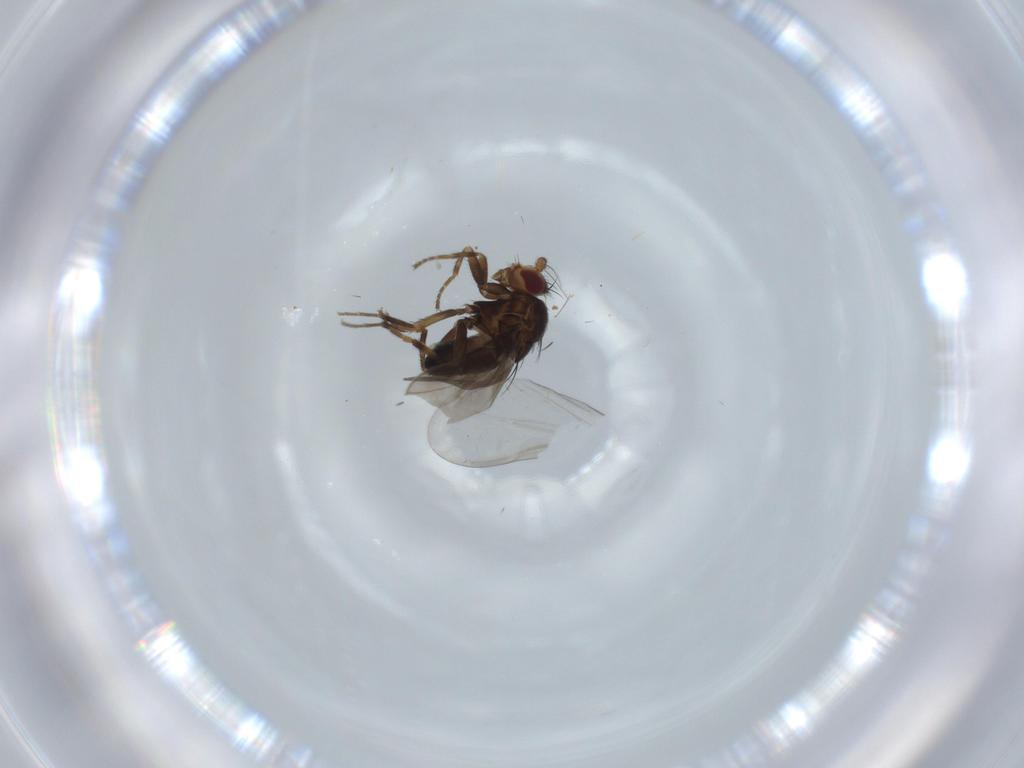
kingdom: Animalia
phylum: Arthropoda
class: Insecta
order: Diptera
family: Sphaeroceridae
